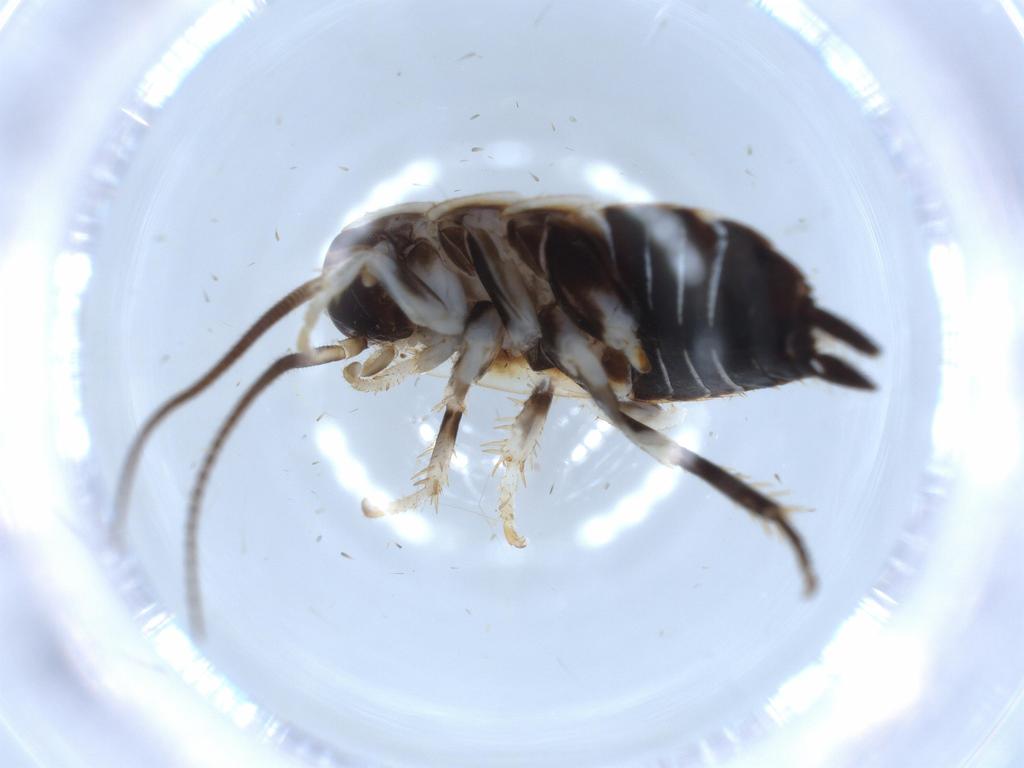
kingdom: Animalia
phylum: Arthropoda
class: Insecta
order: Blattodea
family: Ectobiidae
